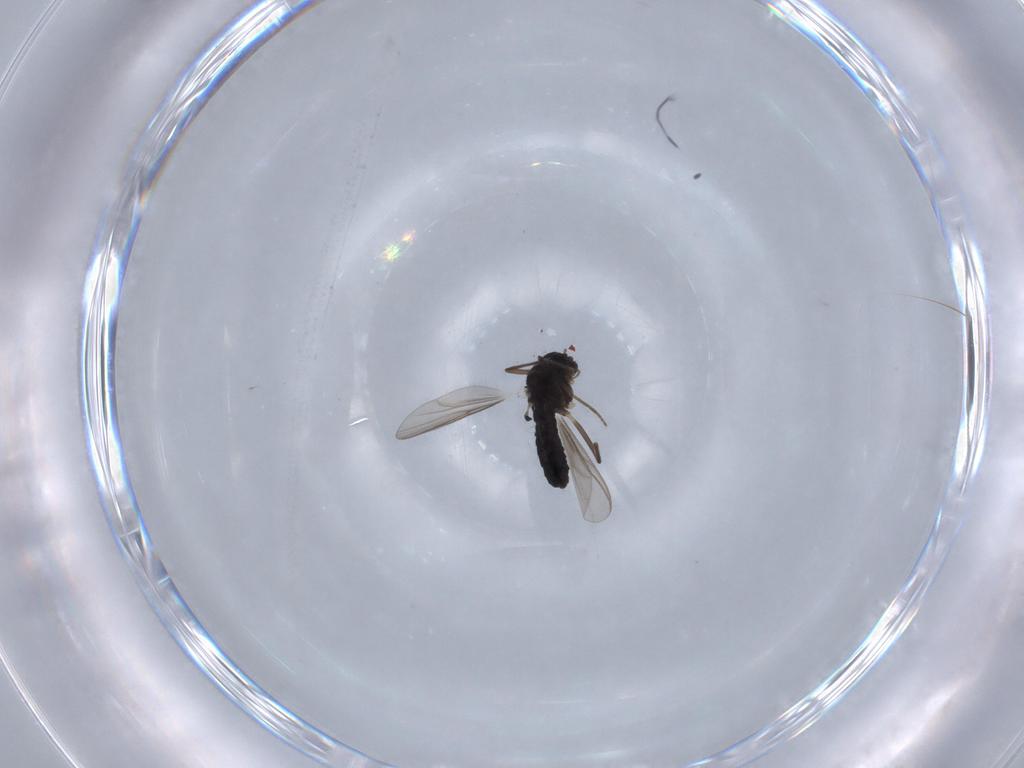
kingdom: Animalia
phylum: Arthropoda
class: Insecta
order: Diptera
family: Chironomidae
